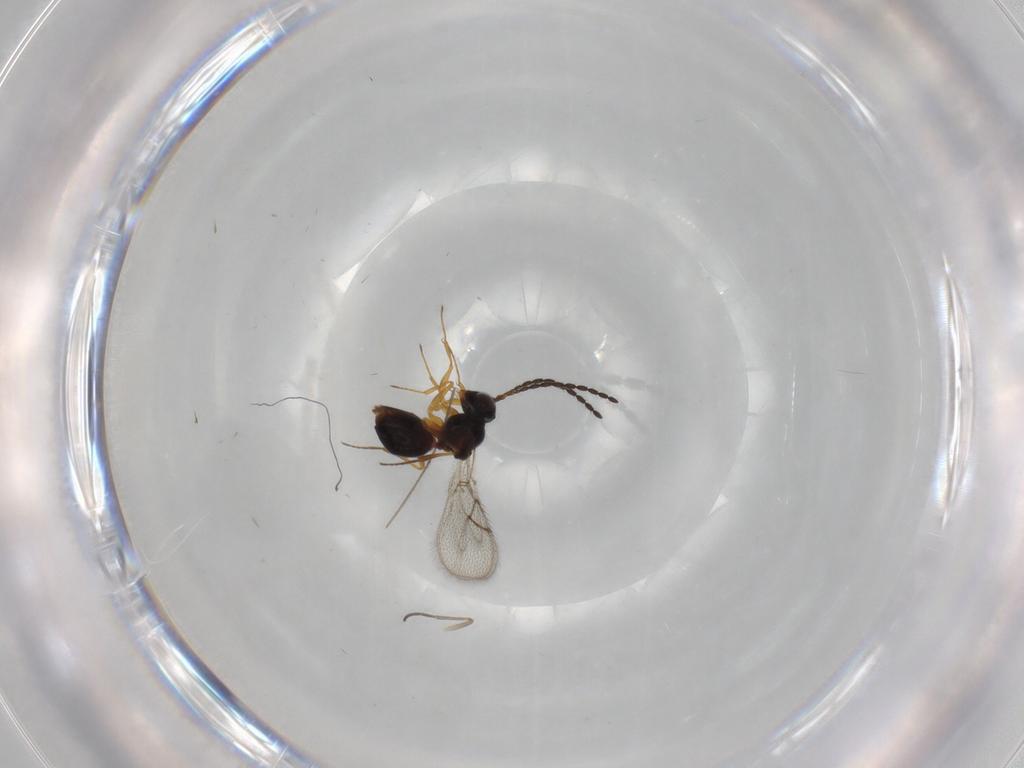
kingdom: Animalia
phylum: Arthropoda
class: Insecta
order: Hymenoptera
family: Figitidae
